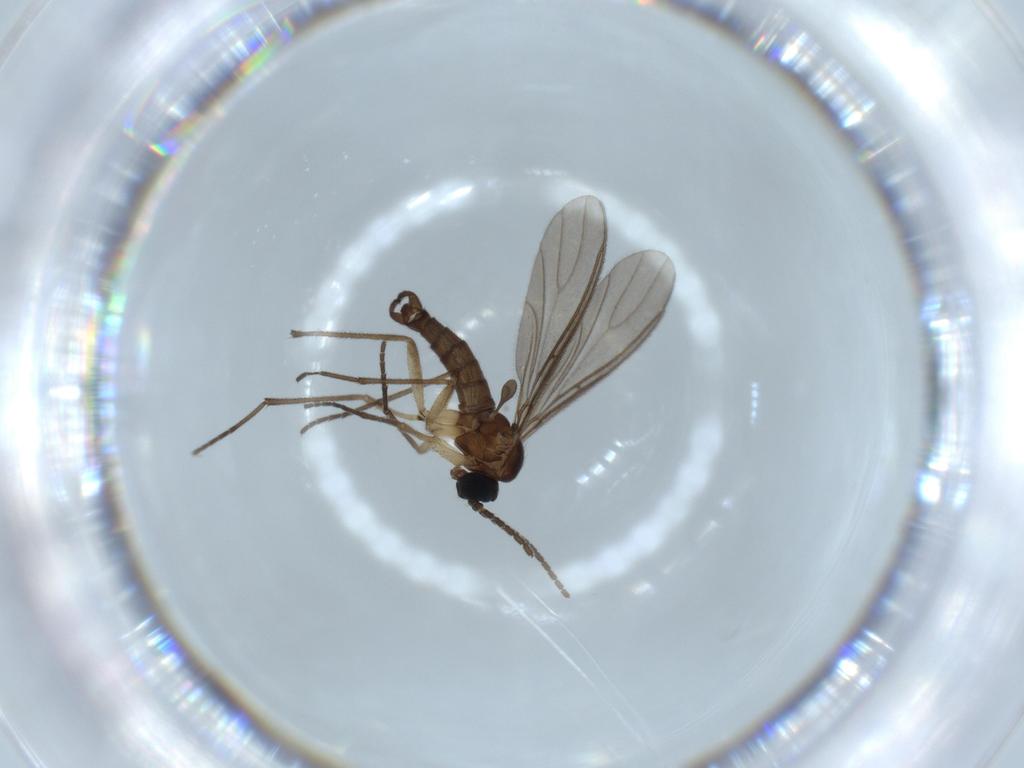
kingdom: Animalia
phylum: Arthropoda
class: Insecta
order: Diptera
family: Sciaridae
